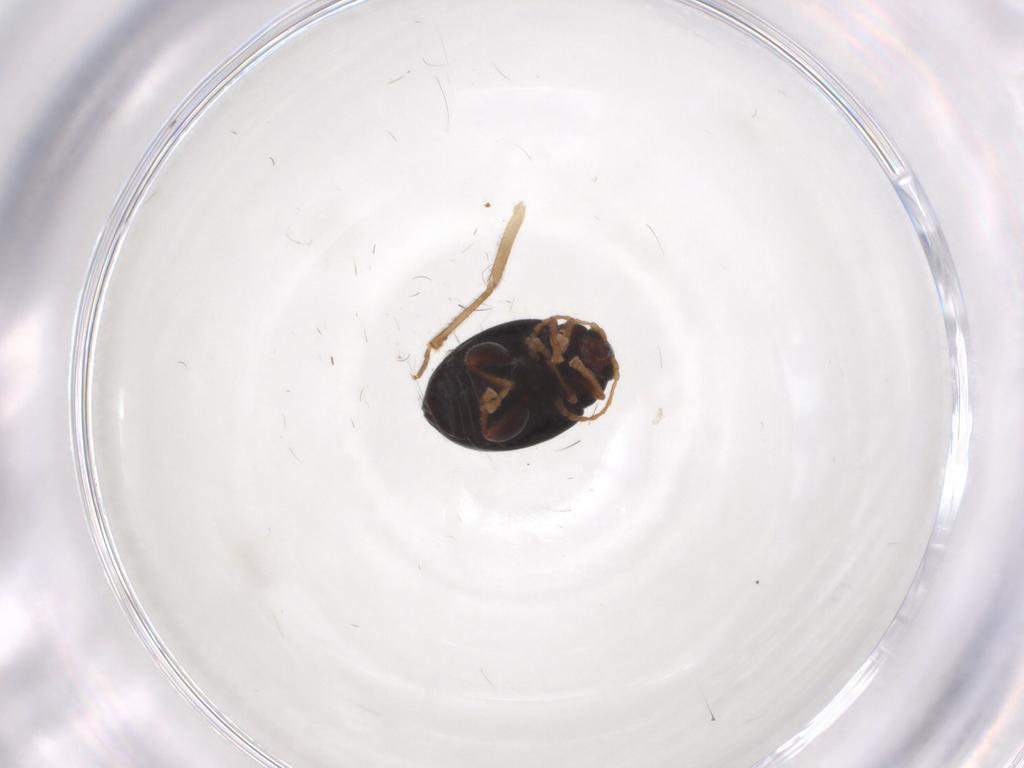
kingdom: Animalia
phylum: Arthropoda
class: Insecta
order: Coleoptera
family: Chrysomelidae
